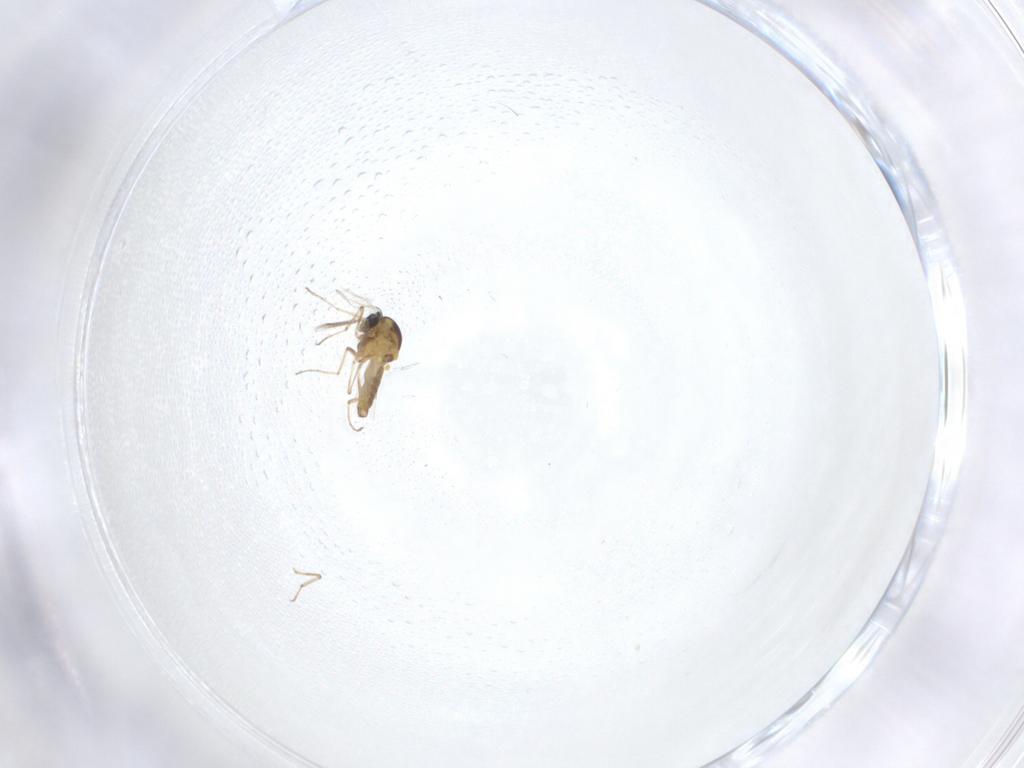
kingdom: Animalia
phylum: Arthropoda
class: Insecta
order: Diptera
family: Ceratopogonidae
